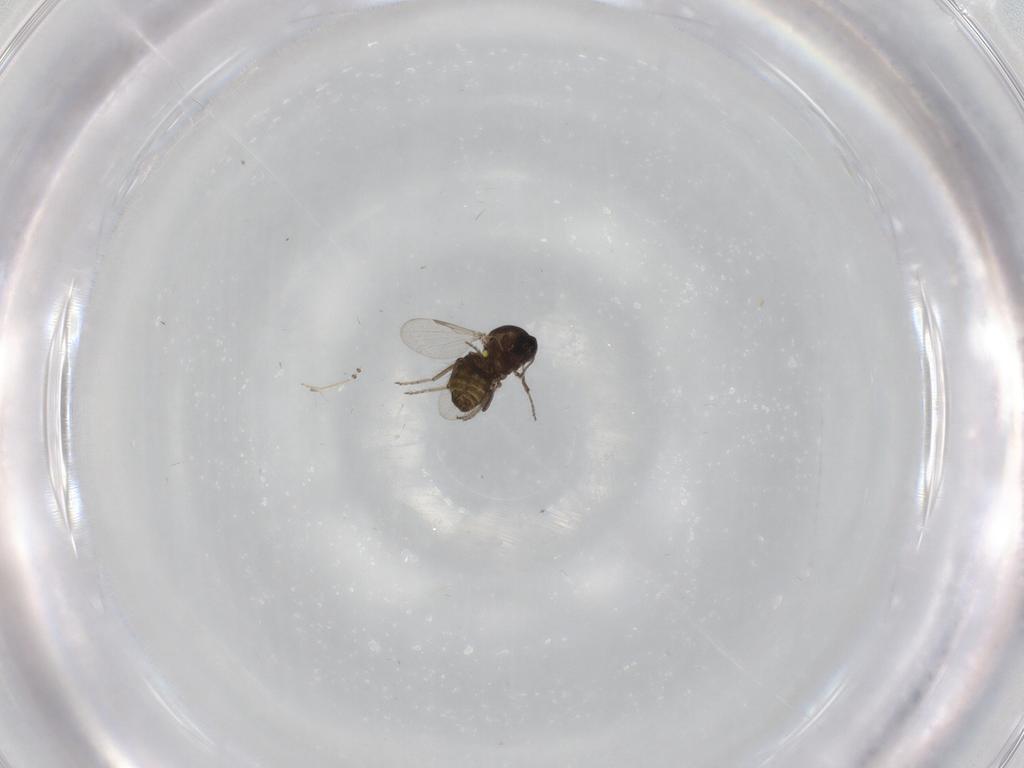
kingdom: Animalia
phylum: Arthropoda
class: Insecta
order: Diptera
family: Ceratopogonidae
